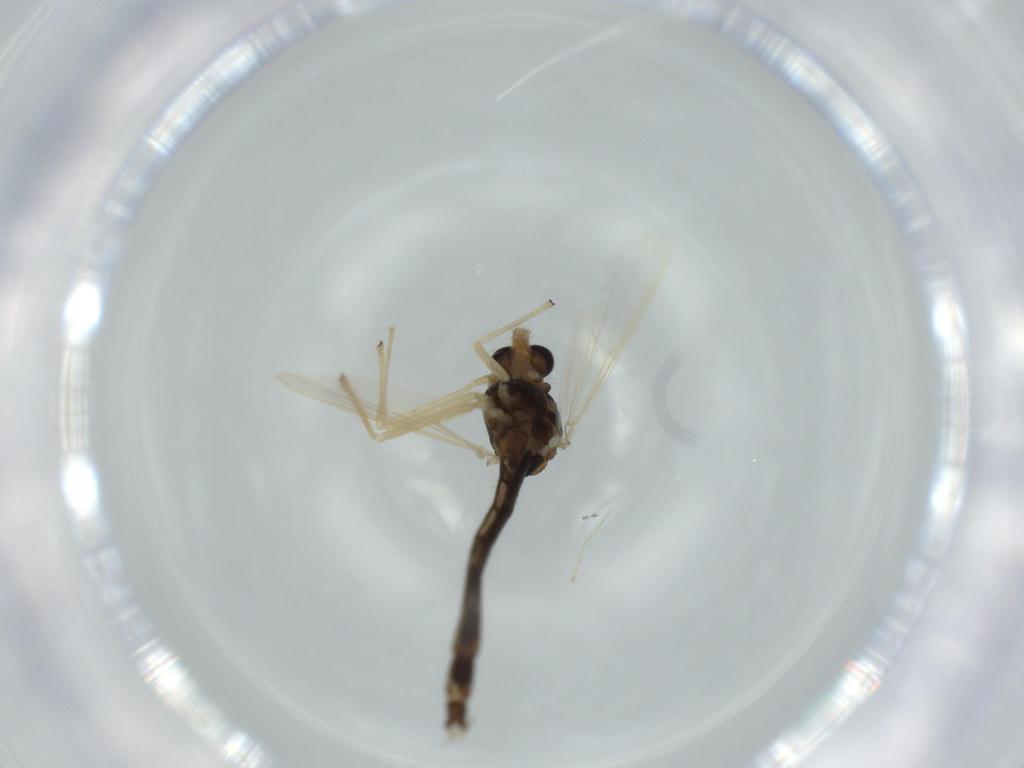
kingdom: Animalia
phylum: Arthropoda
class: Insecta
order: Diptera
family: Chironomidae
